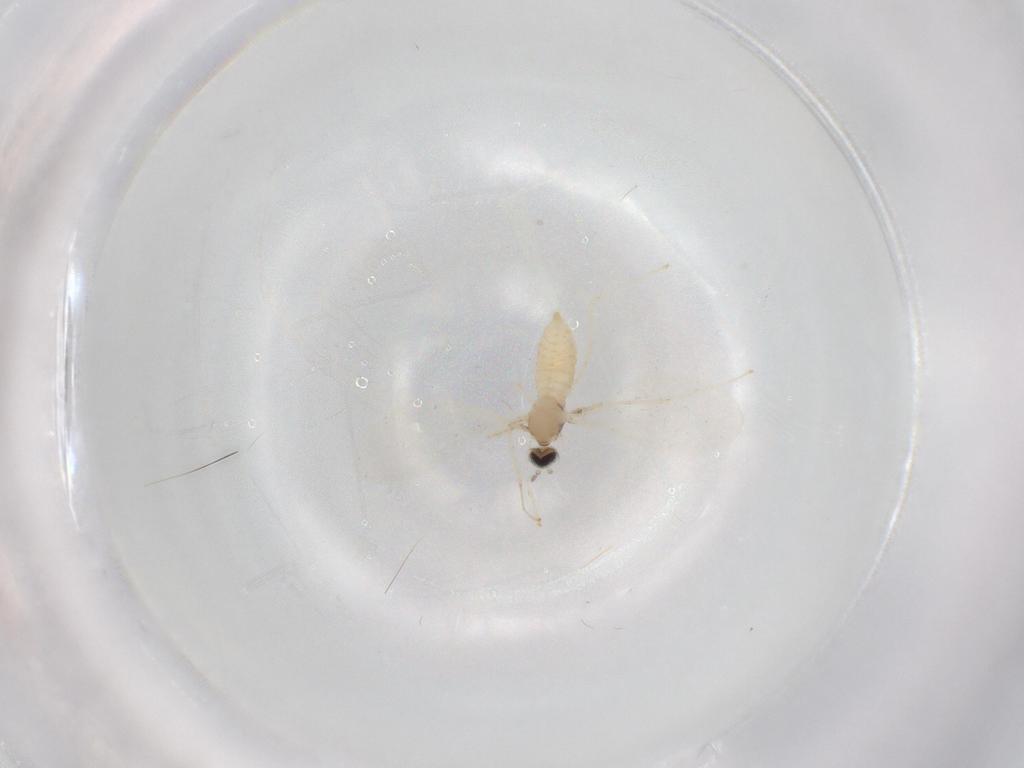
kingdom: Animalia
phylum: Arthropoda
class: Insecta
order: Diptera
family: Cecidomyiidae
